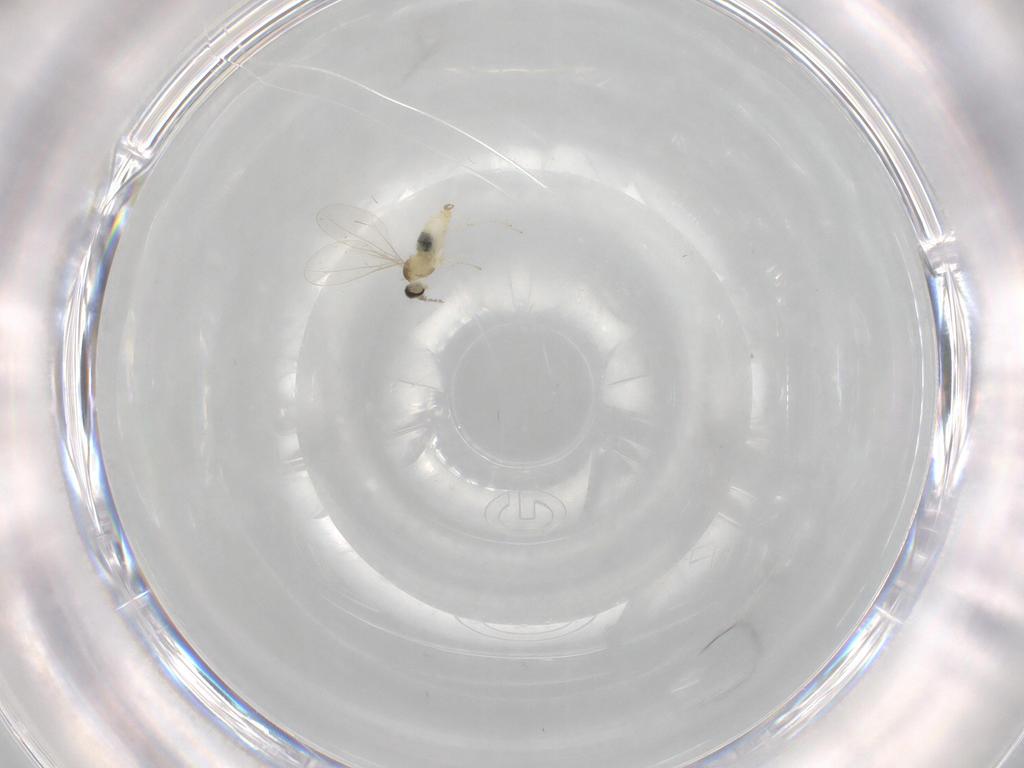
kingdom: Animalia
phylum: Arthropoda
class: Insecta
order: Diptera
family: Cecidomyiidae
